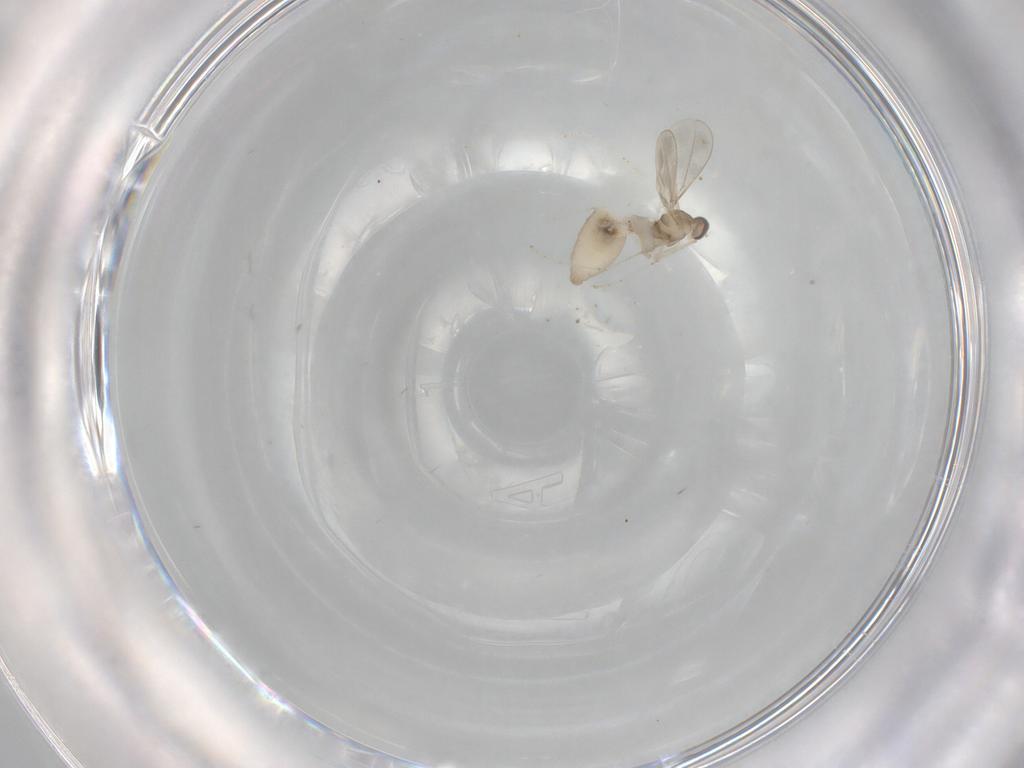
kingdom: Animalia
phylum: Arthropoda
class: Insecta
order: Diptera
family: Cecidomyiidae
